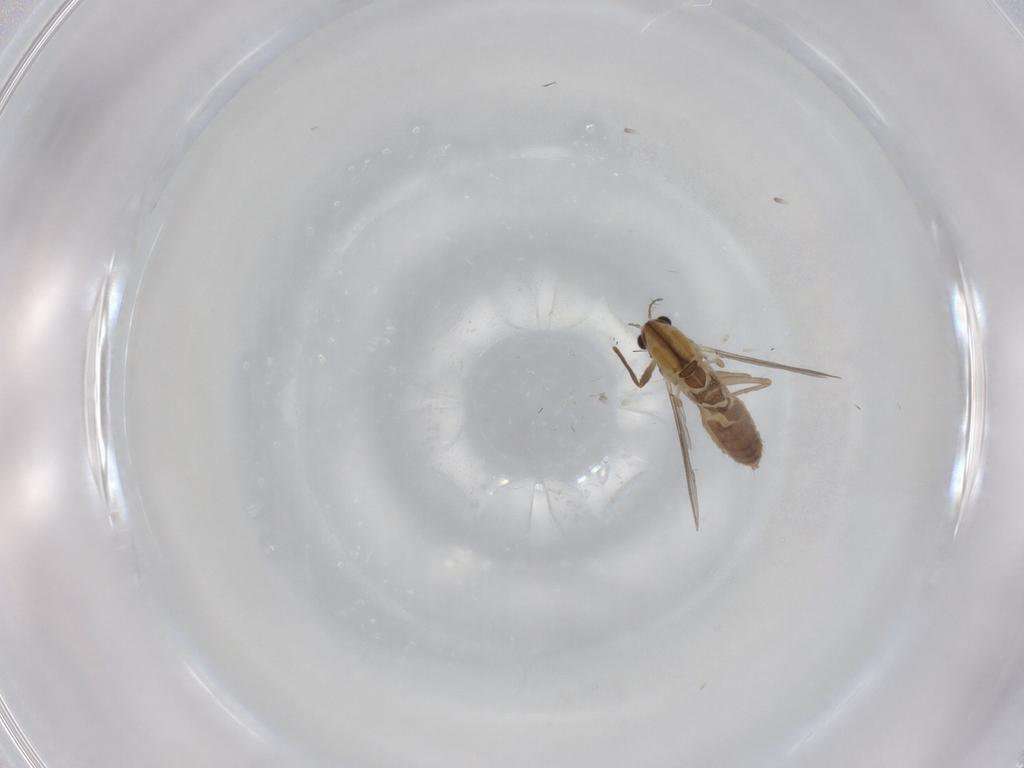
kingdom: Animalia
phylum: Arthropoda
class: Insecta
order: Diptera
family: Chironomidae
